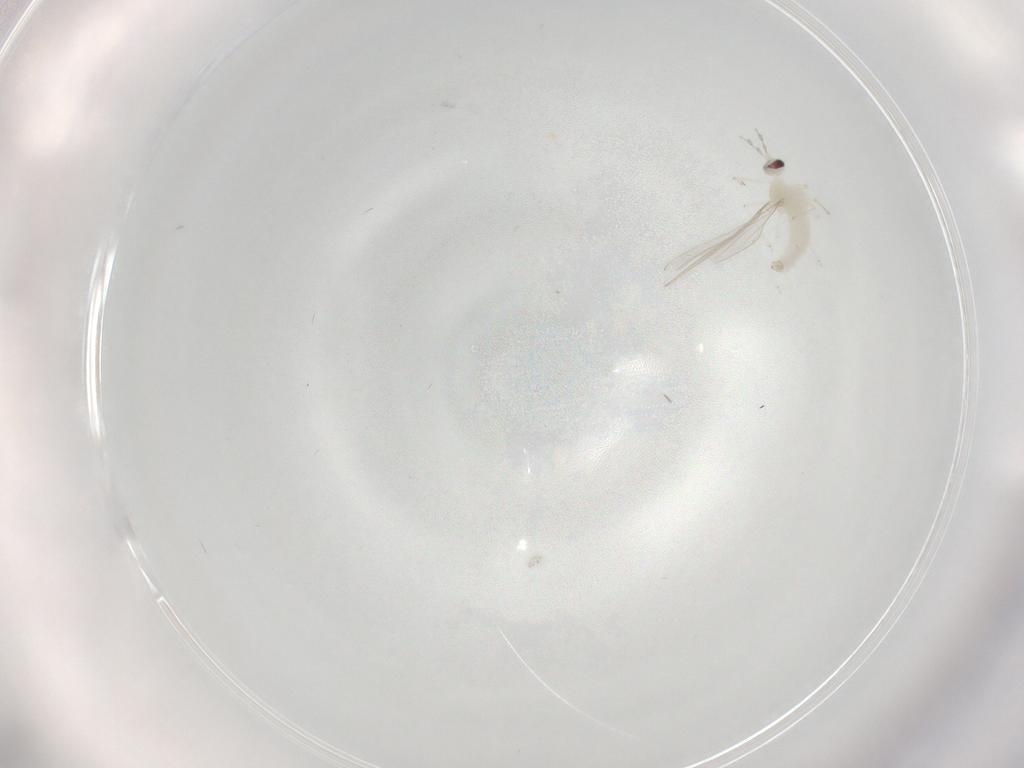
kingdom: Animalia
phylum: Arthropoda
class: Insecta
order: Diptera
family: Cecidomyiidae
